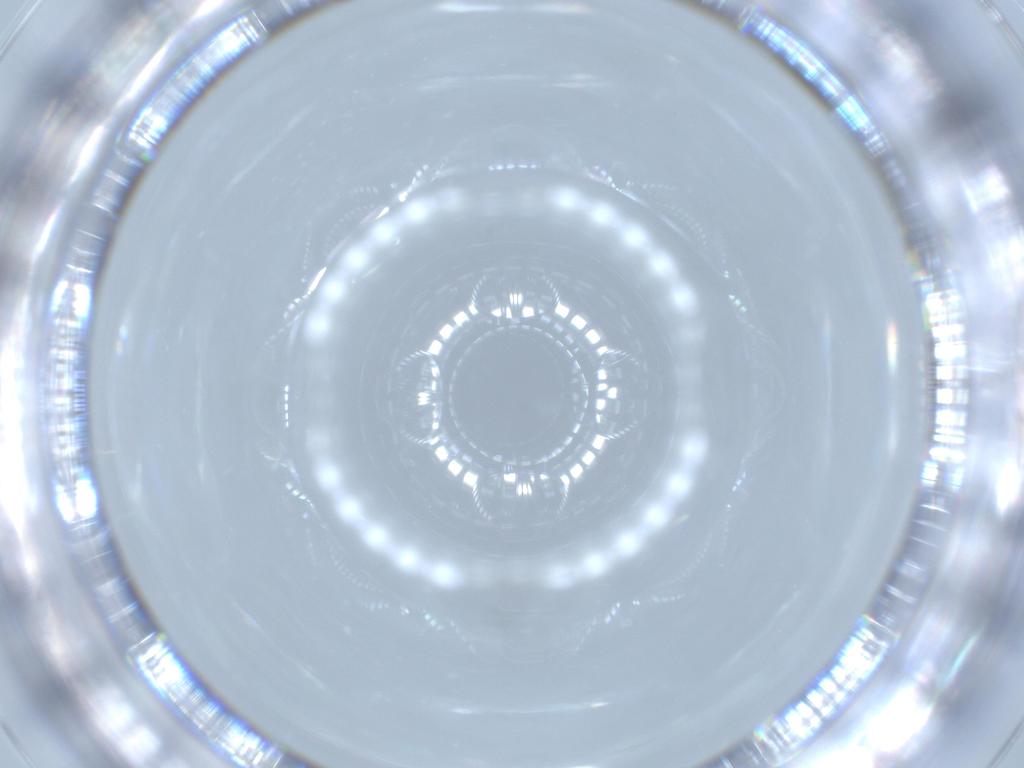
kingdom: Animalia
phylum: Arthropoda
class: Insecta
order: Diptera
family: Cecidomyiidae
